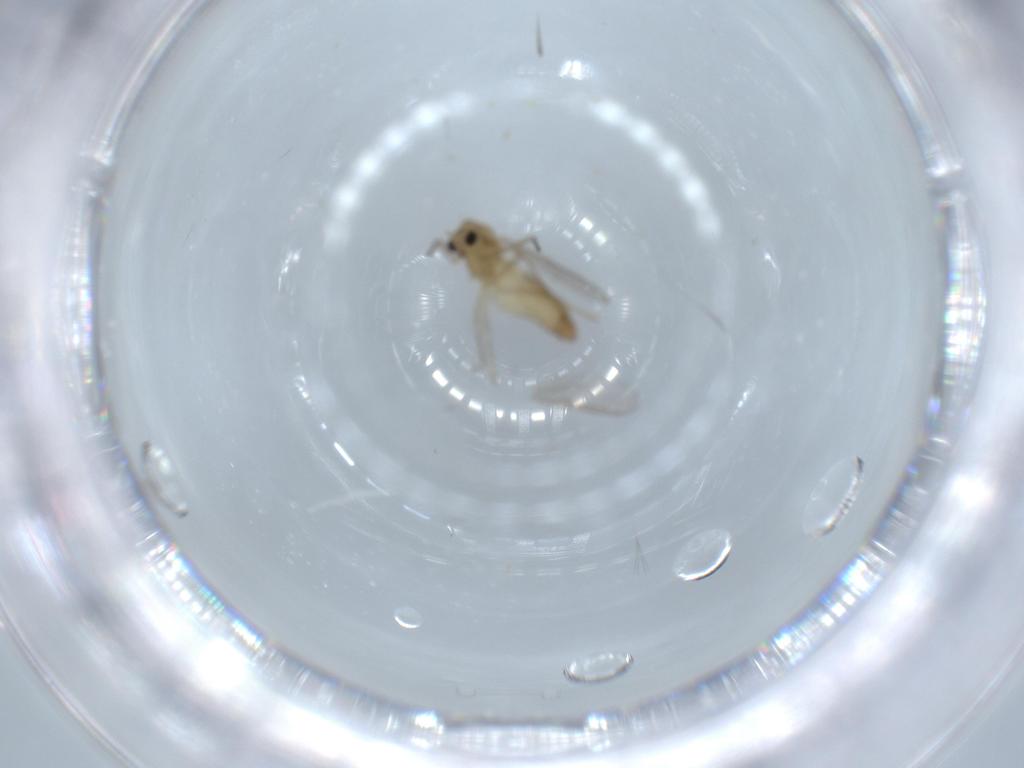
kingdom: Animalia
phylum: Arthropoda
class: Insecta
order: Diptera
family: Chironomidae
